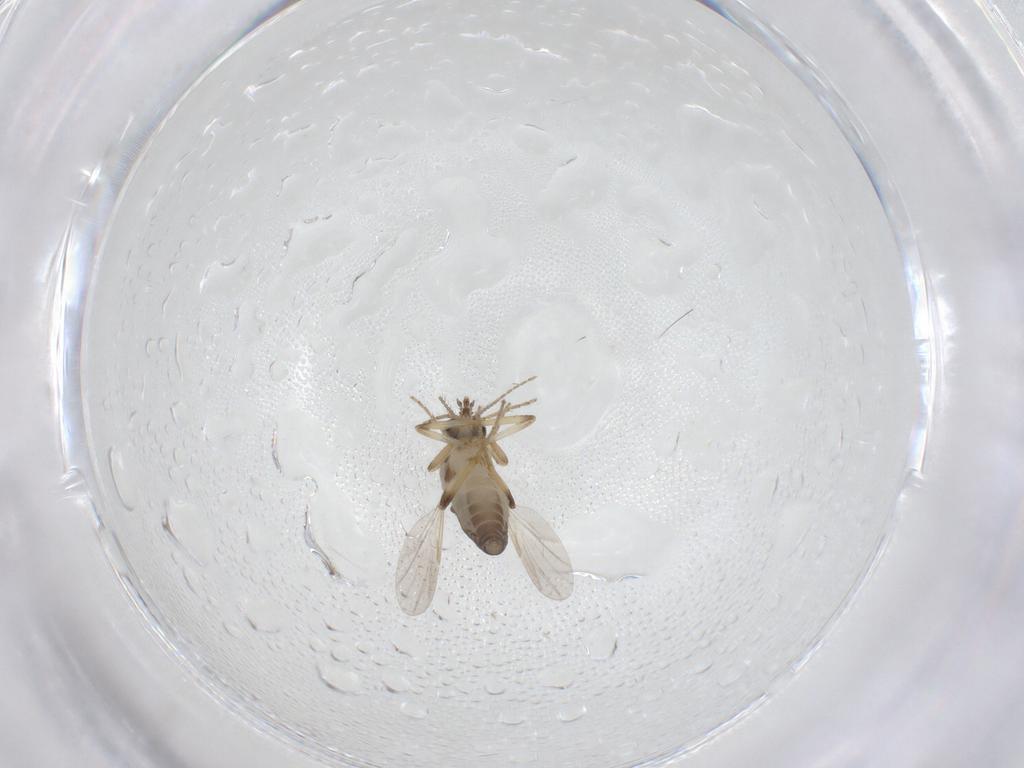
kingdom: Animalia
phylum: Arthropoda
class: Insecta
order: Diptera
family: Ceratopogonidae
